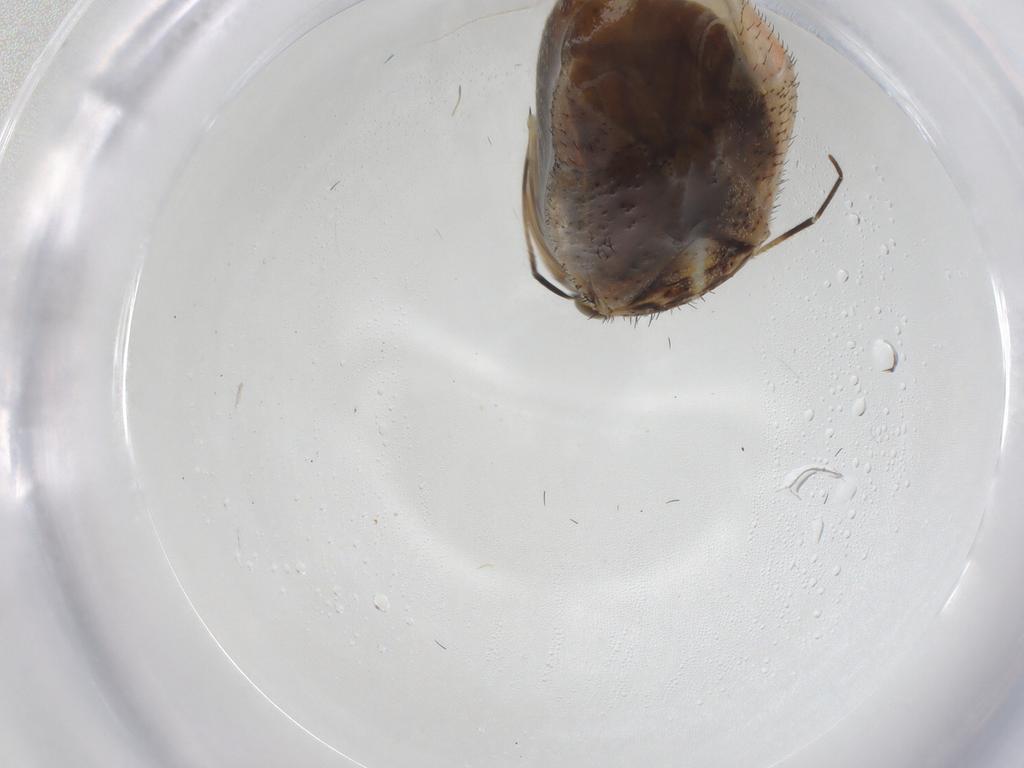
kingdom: Animalia
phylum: Arthropoda
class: Insecta
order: Hemiptera
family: Miridae
